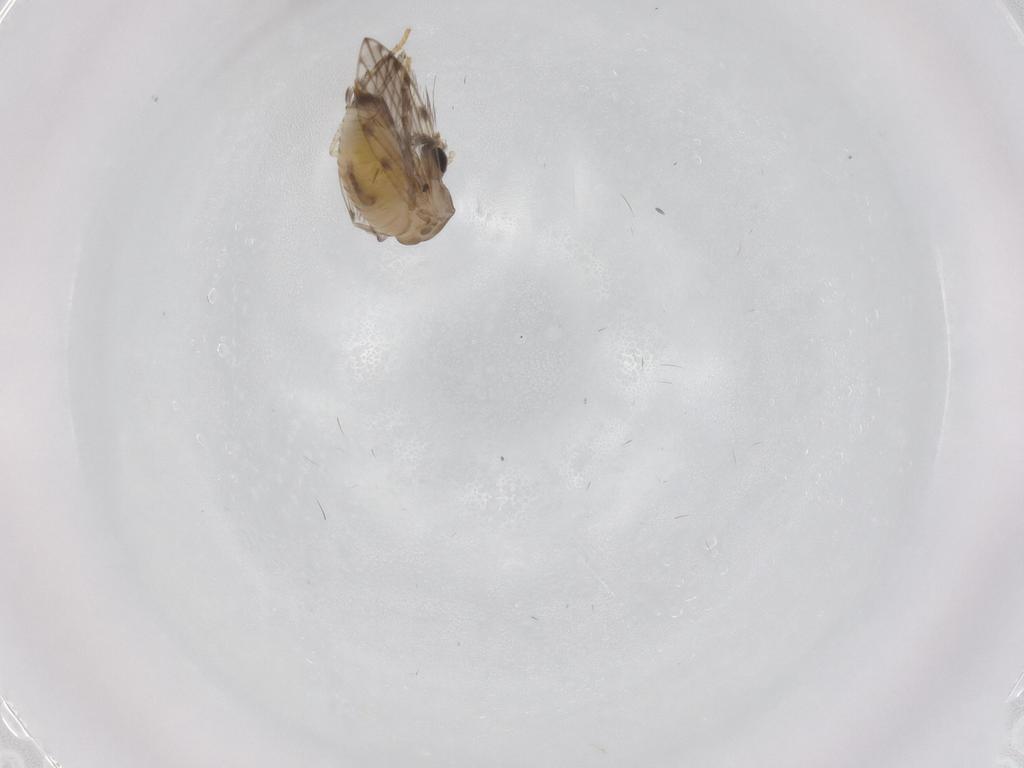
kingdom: Animalia
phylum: Arthropoda
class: Insecta
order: Diptera
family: Psychodidae
